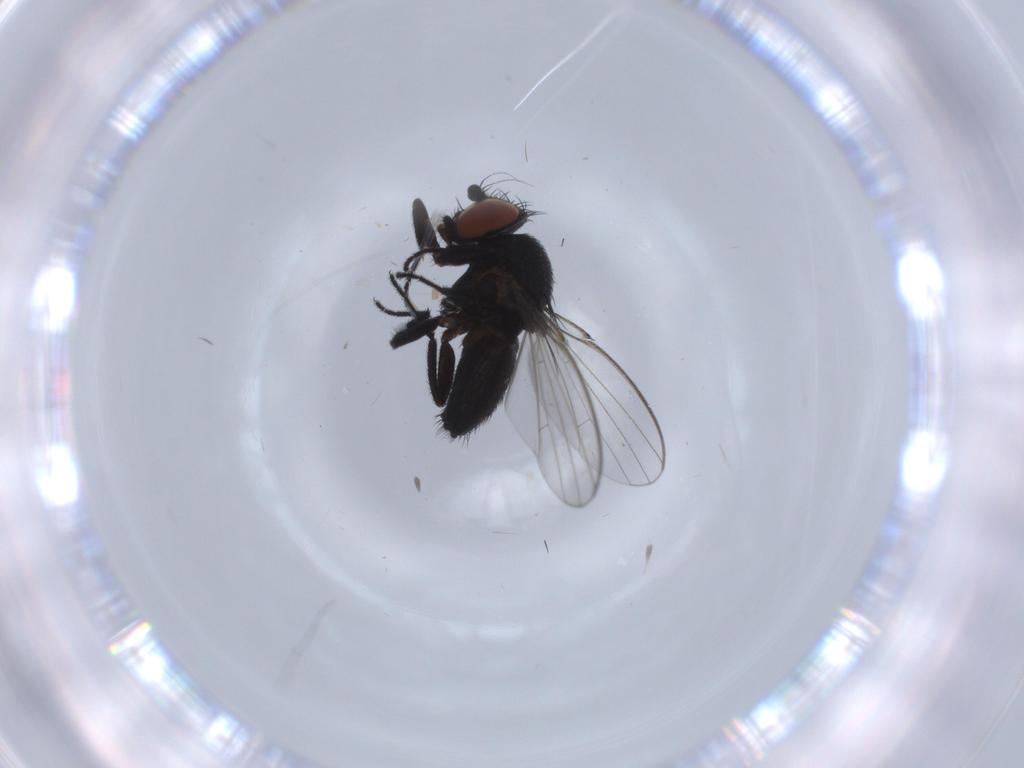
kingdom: Animalia
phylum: Arthropoda
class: Insecta
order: Diptera
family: Milichiidae
